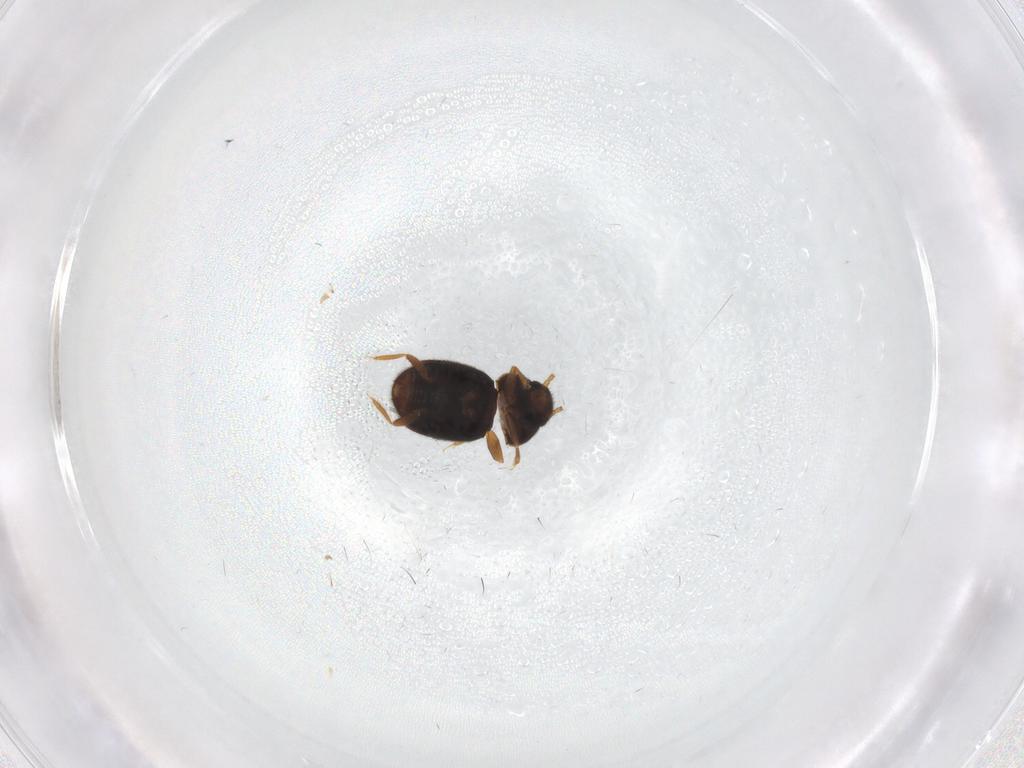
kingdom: Animalia
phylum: Arthropoda
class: Insecta
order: Coleoptera
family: Ptiliidae
